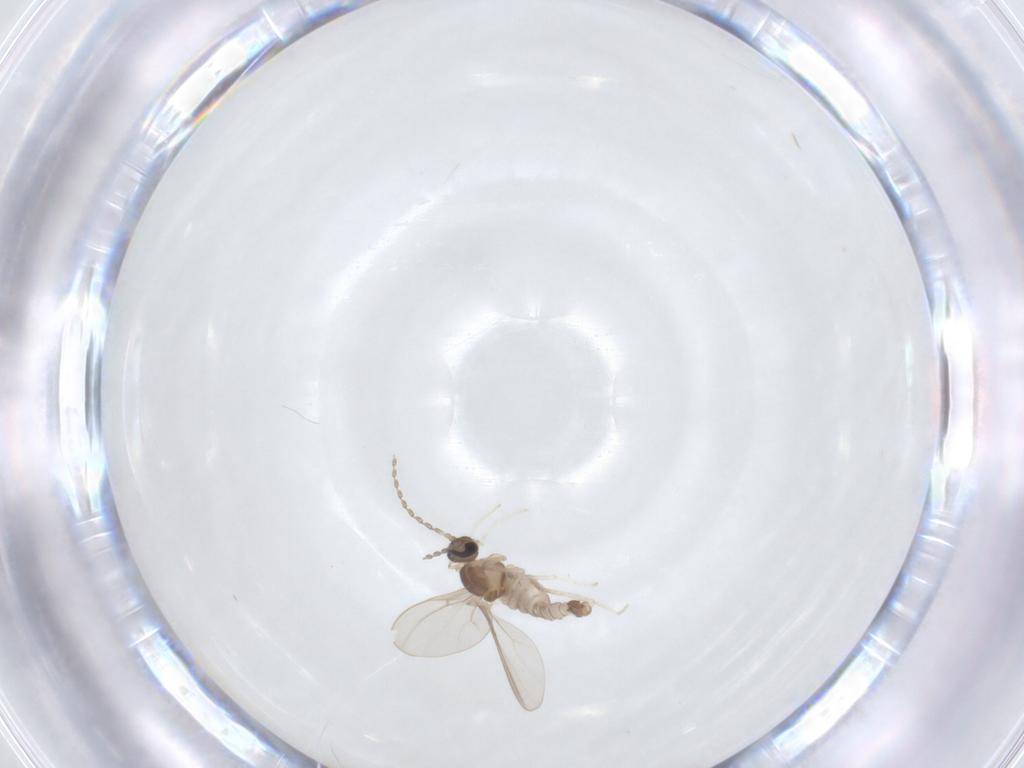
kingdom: Animalia
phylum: Arthropoda
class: Insecta
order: Diptera
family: Cecidomyiidae
